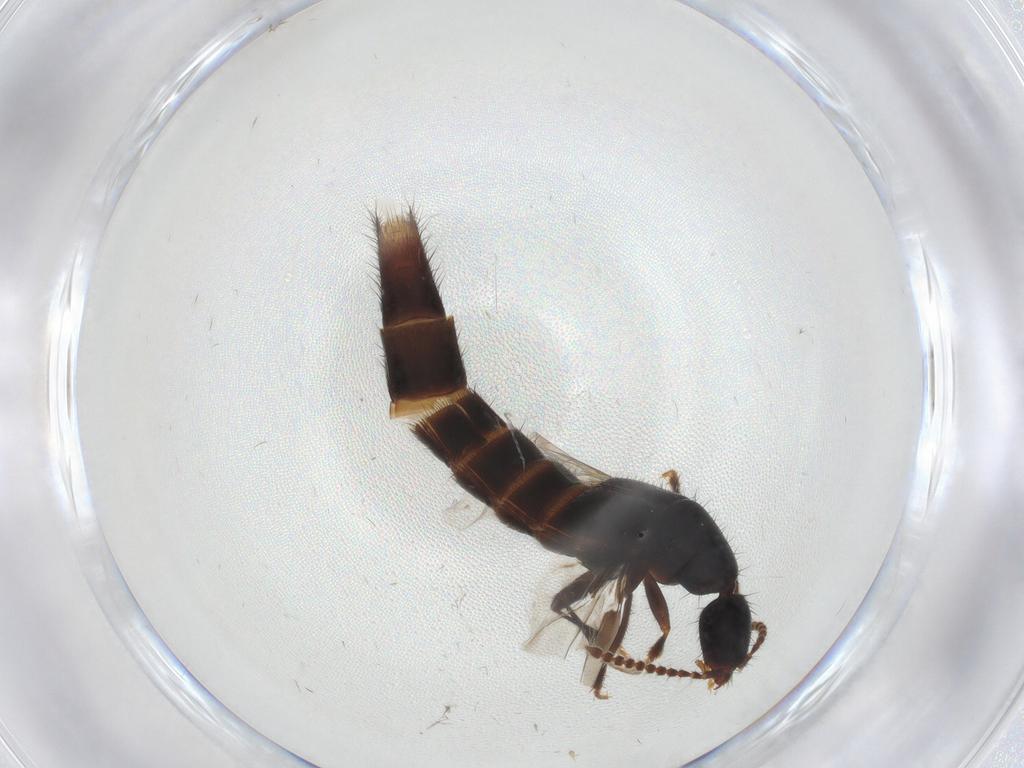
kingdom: Animalia
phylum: Arthropoda
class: Insecta
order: Coleoptera
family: Staphylinidae
